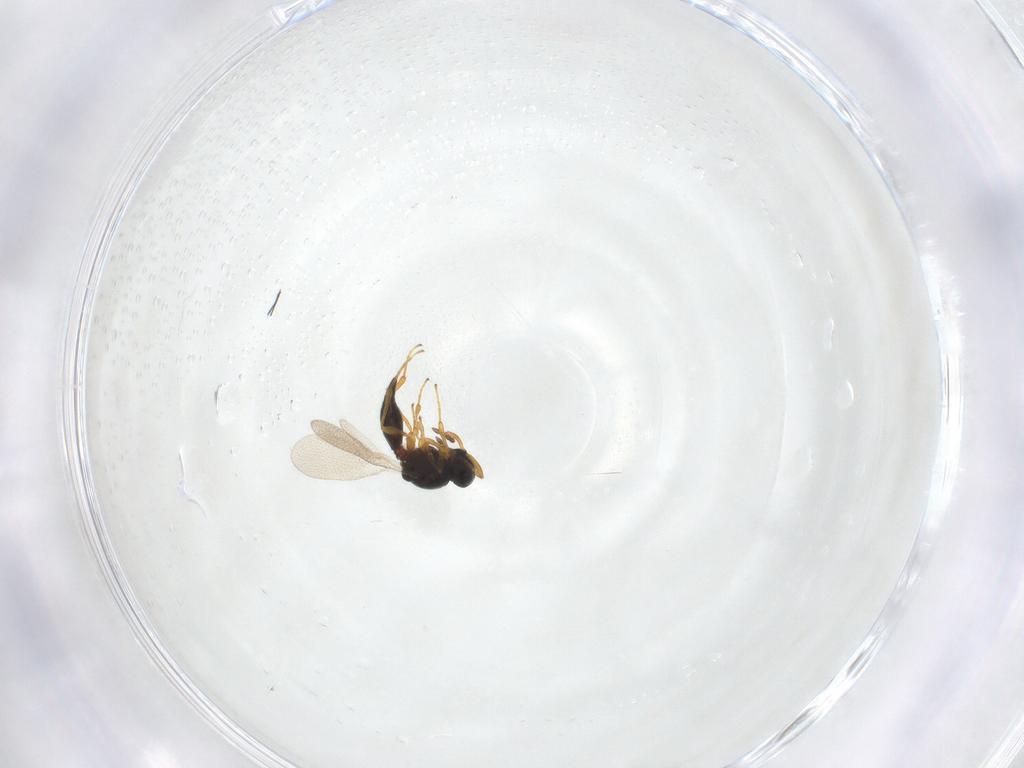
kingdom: Animalia
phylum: Arthropoda
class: Insecta
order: Hymenoptera
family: Platygastridae
